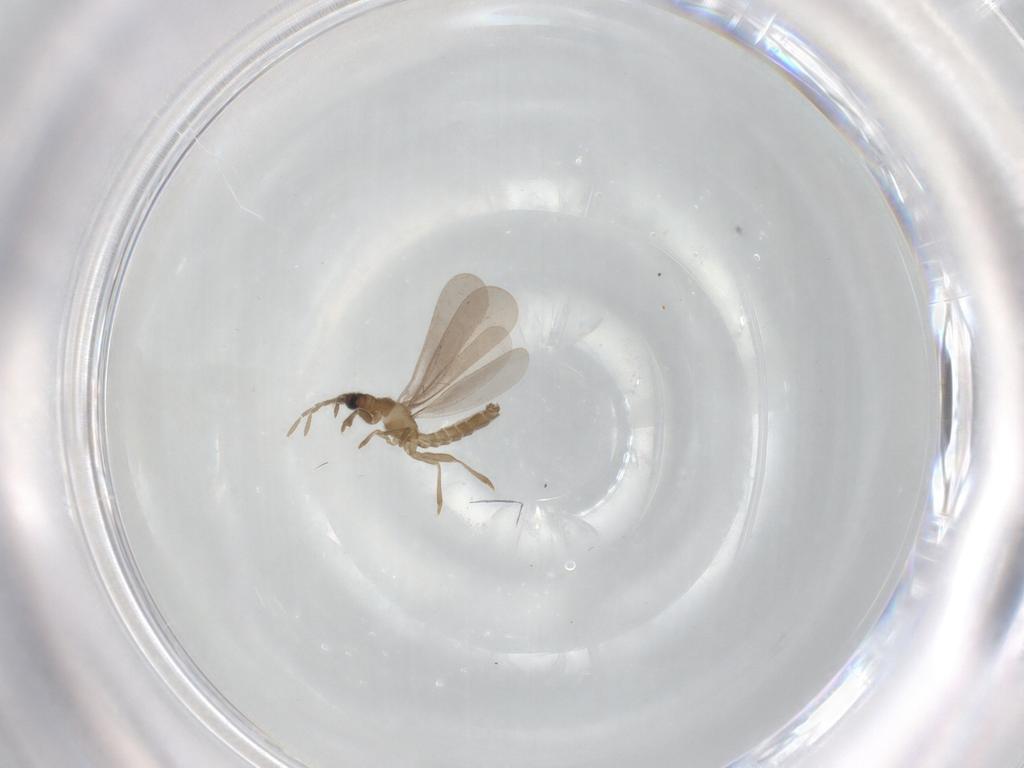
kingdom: Animalia
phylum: Arthropoda
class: Insecta
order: Hemiptera
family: Enicocephalidae
